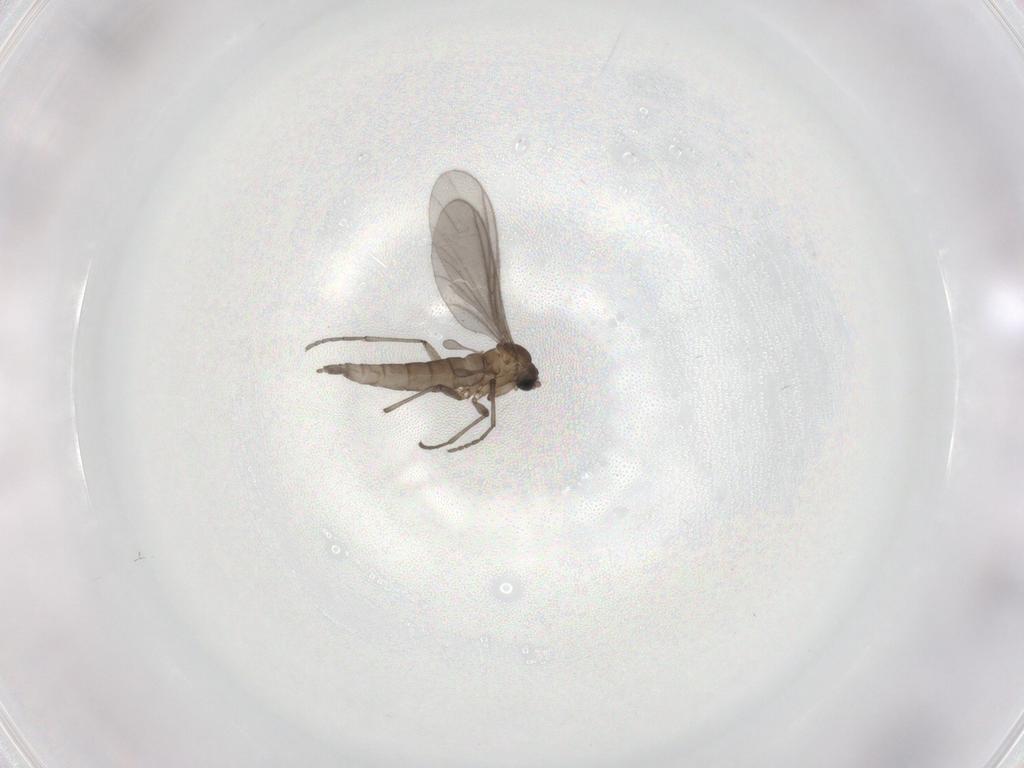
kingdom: Animalia
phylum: Arthropoda
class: Insecta
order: Diptera
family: Sciaridae
